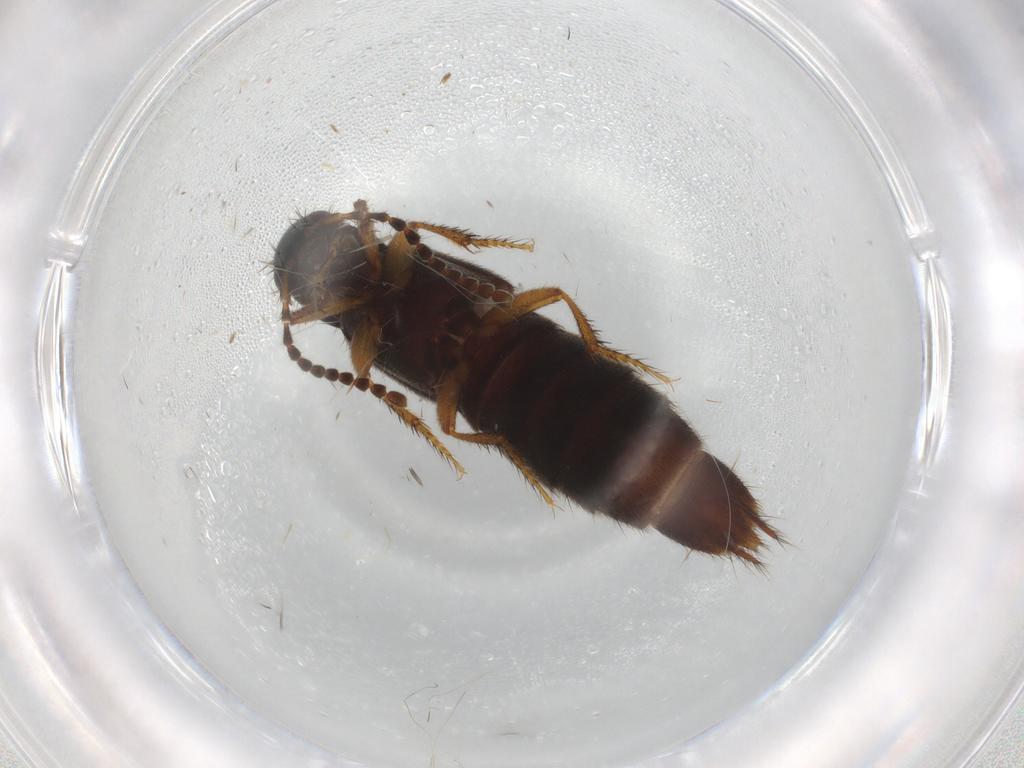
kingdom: Animalia
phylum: Arthropoda
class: Insecta
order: Coleoptera
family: Staphylinidae
